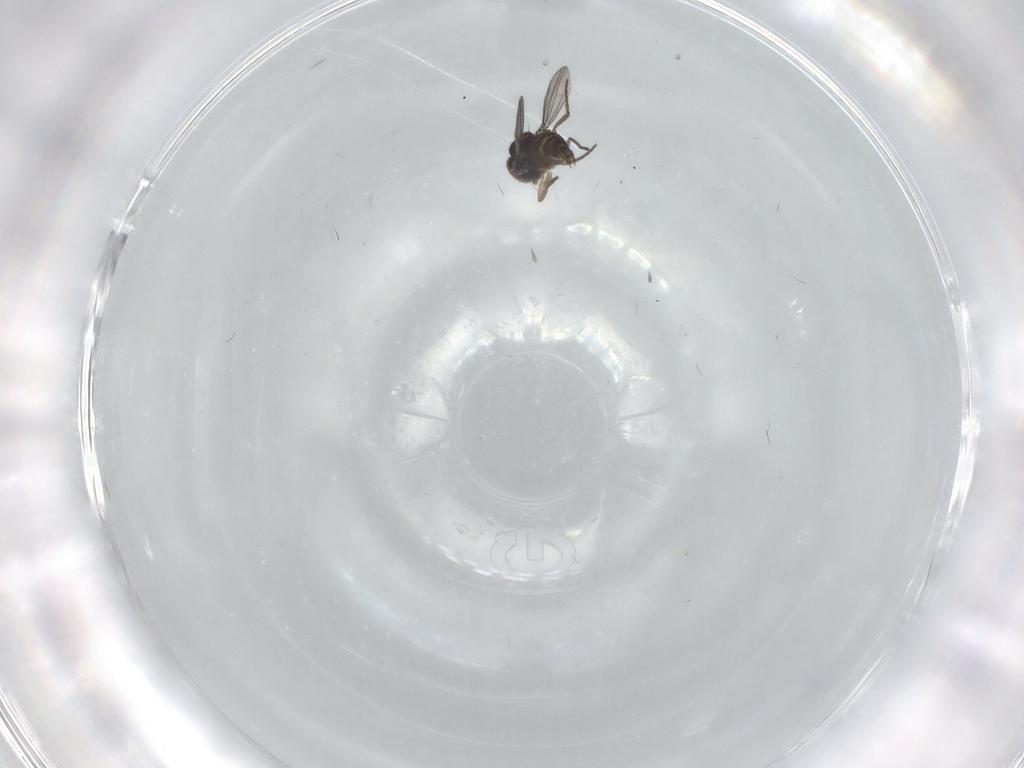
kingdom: Animalia
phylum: Arthropoda
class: Insecta
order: Diptera
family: Dolichopodidae
